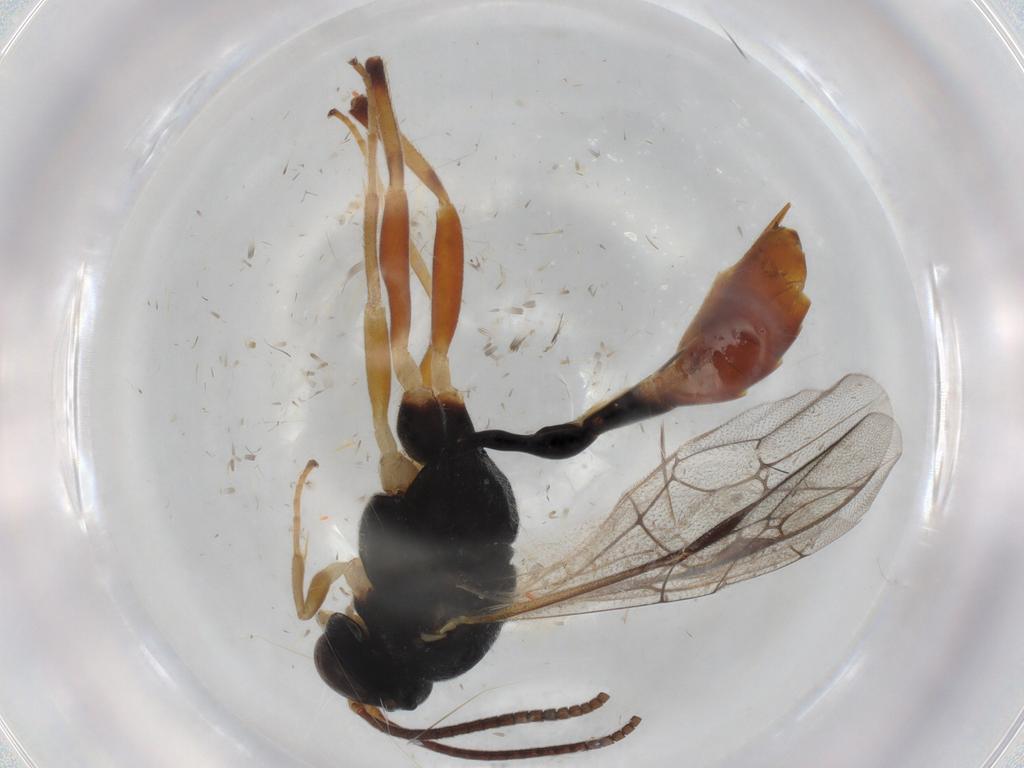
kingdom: Animalia
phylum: Arthropoda
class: Insecta
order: Hymenoptera
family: Ichneumonidae
